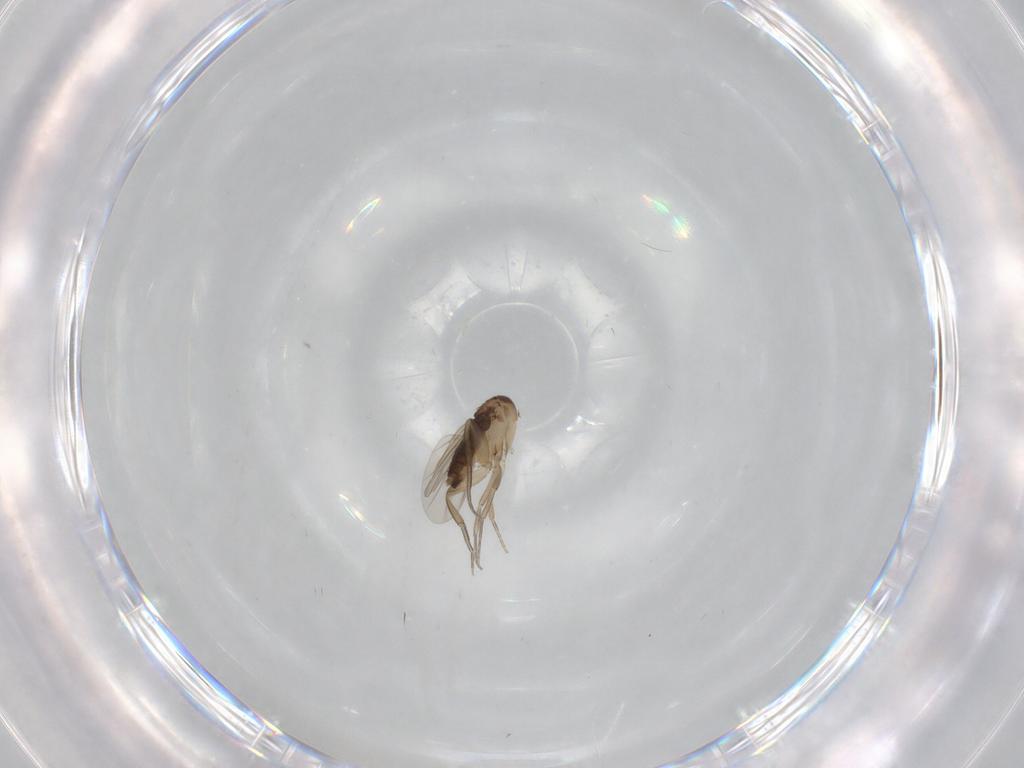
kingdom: Animalia
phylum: Arthropoda
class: Insecta
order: Diptera
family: Phoridae
